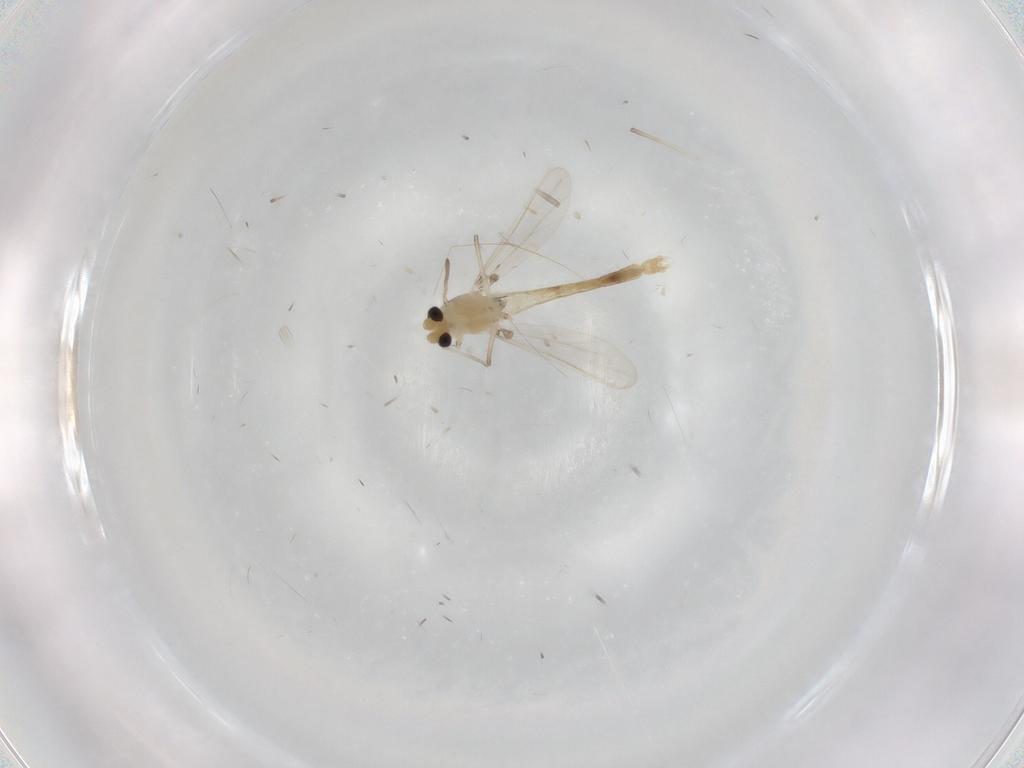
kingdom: Animalia
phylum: Arthropoda
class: Insecta
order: Diptera
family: Chironomidae
